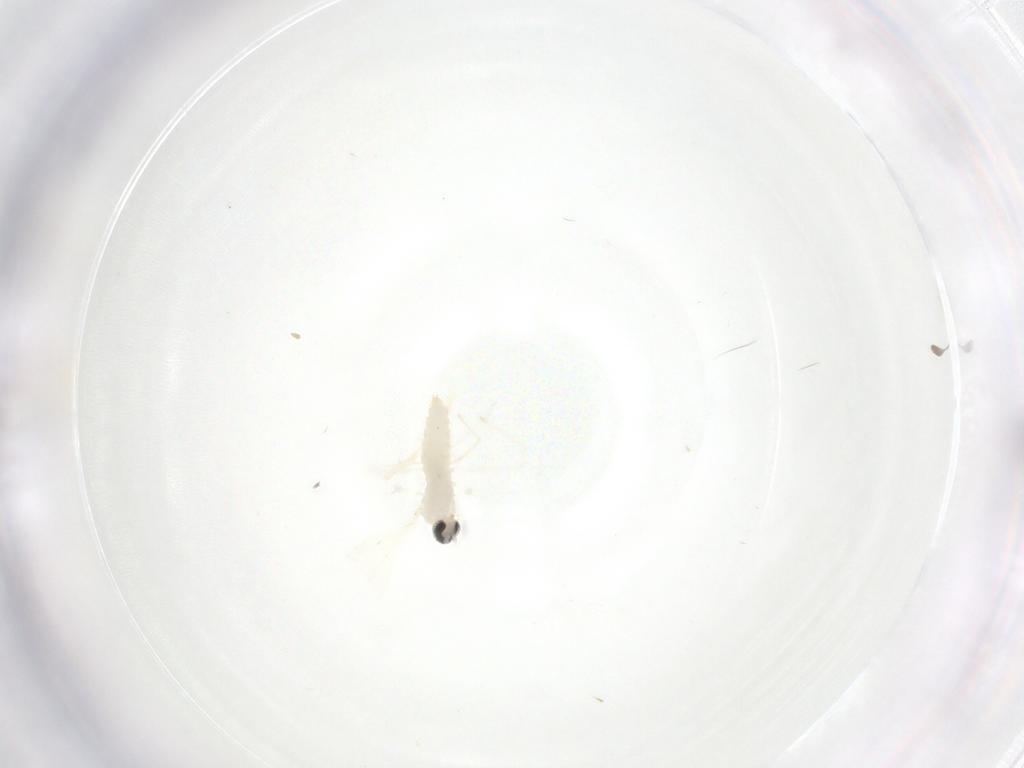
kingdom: Animalia
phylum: Arthropoda
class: Insecta
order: Diptera
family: Cecidomyiidae
